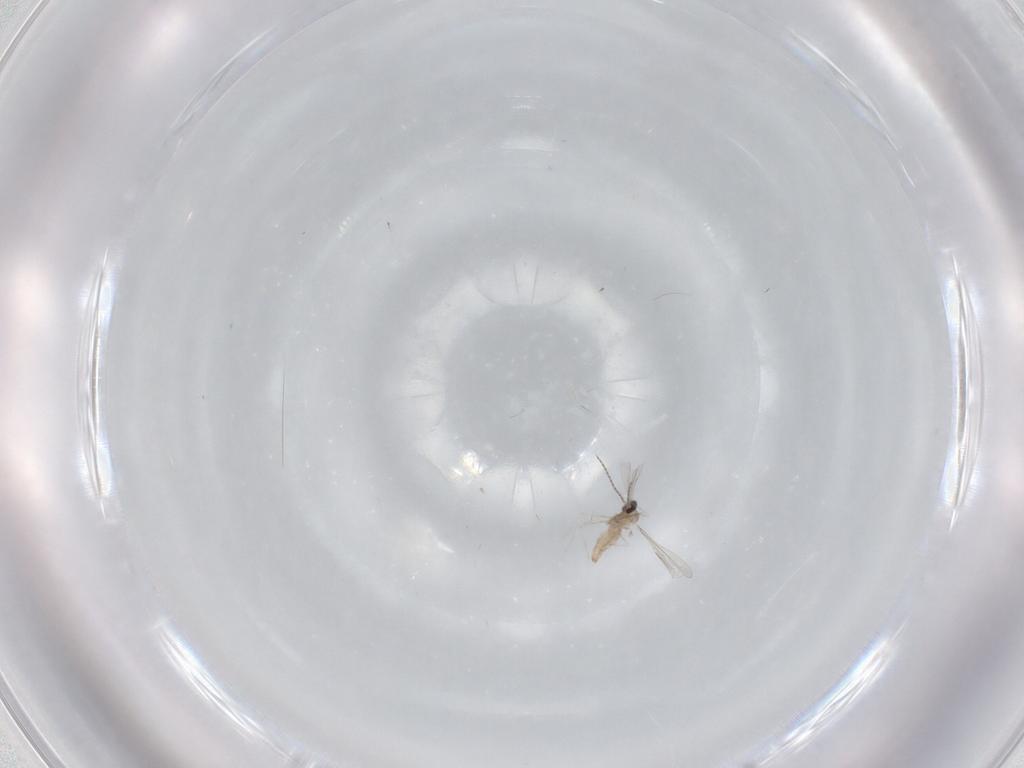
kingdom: Animalia
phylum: Arthropoda
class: Insecta
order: Diptera
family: Cecidomyiidae
